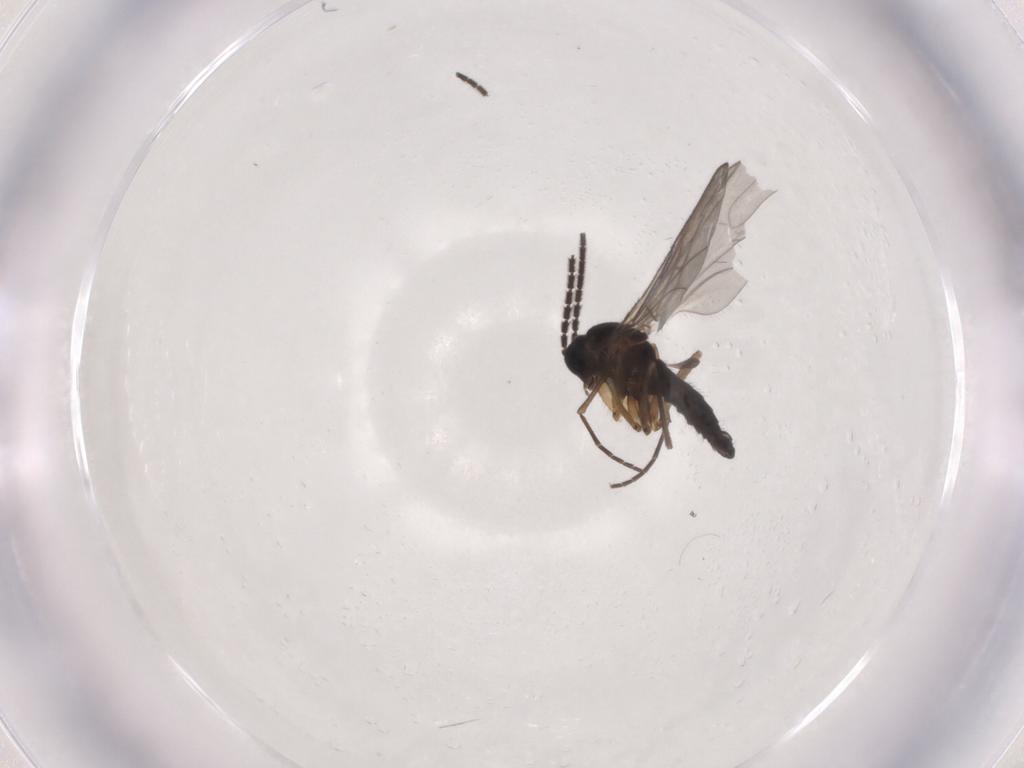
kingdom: Animalia
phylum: Arthropoda
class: Insecta
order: Diptera
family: Sciaridae
